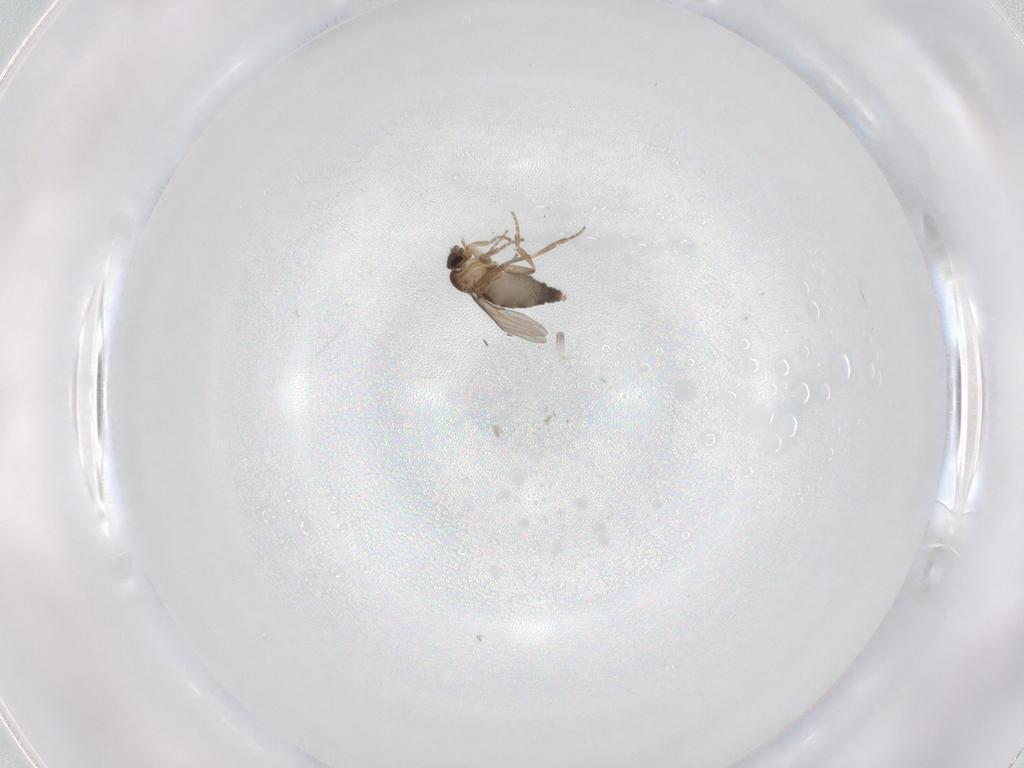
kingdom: Animalia
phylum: Arthropoda
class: Insecta
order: Diptera
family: Phoridae
